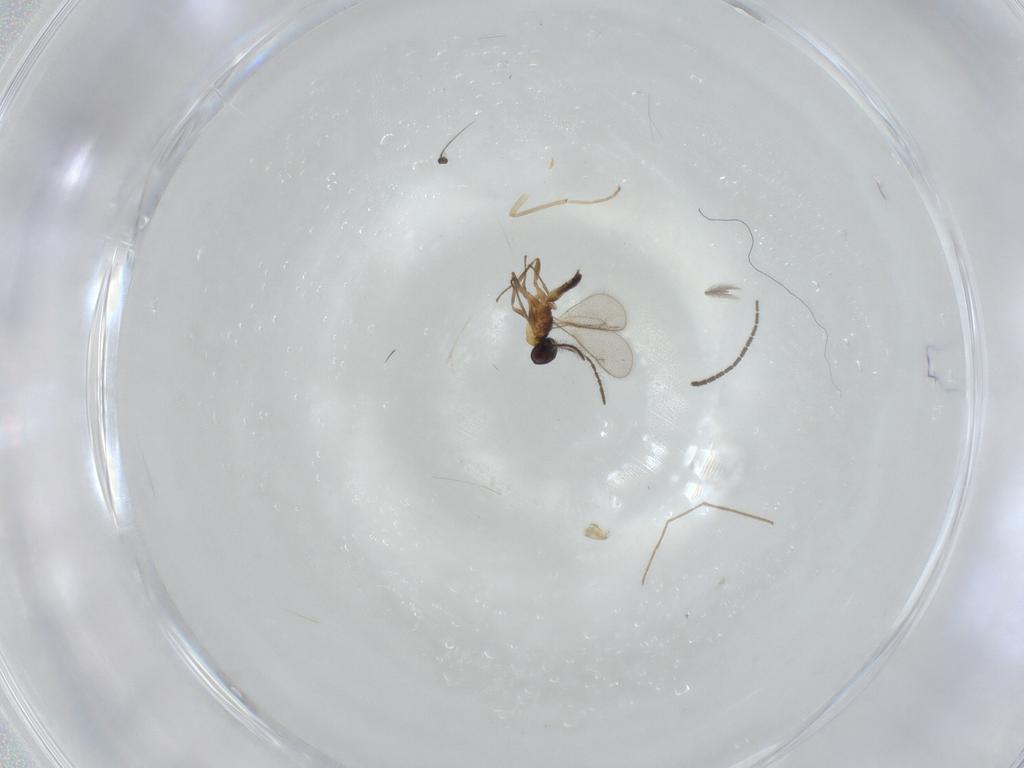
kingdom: Animalia
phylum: Arthropoda
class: Insecta
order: Hymenoptera
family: Eupelmidae
